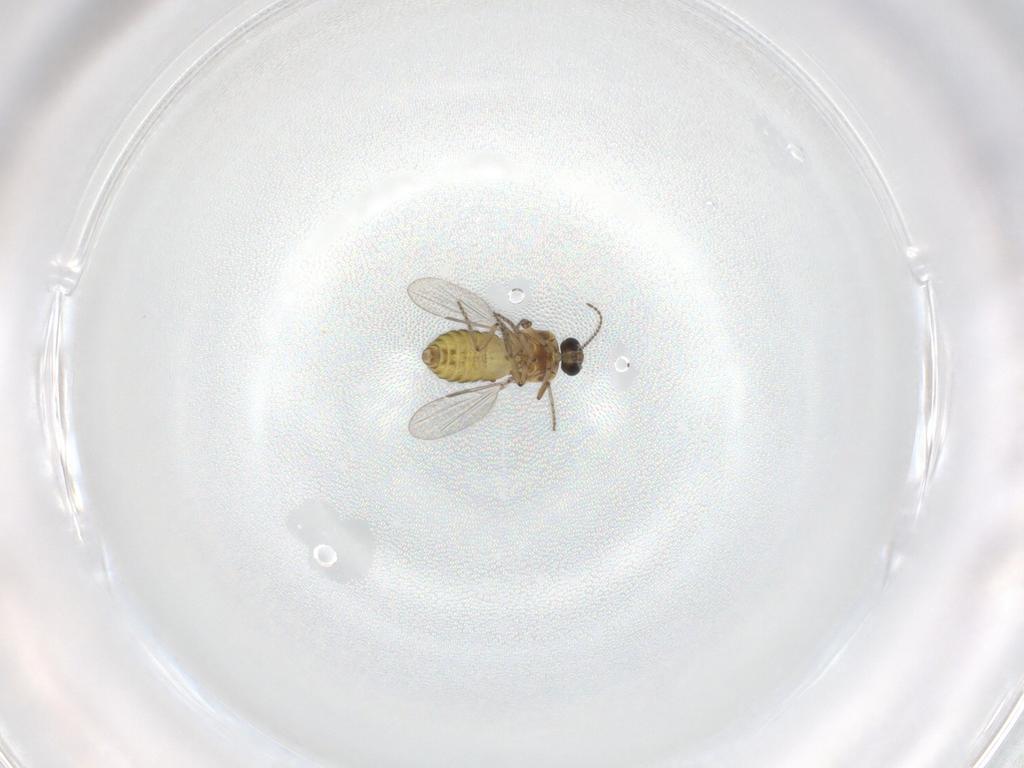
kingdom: Animalia
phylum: Arthropoda
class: Insecta
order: Diptera
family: Ceratopogonidae
